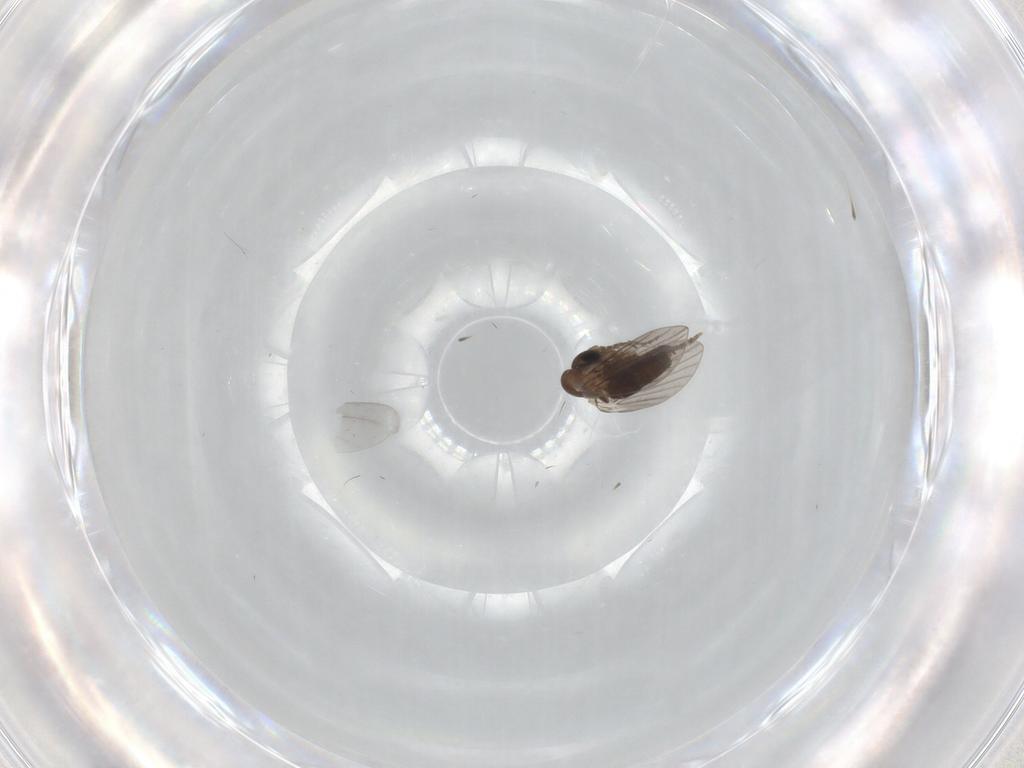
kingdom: Animalia
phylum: Arthropoda
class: Insecta
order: Diptera
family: Cecidomyiidae
